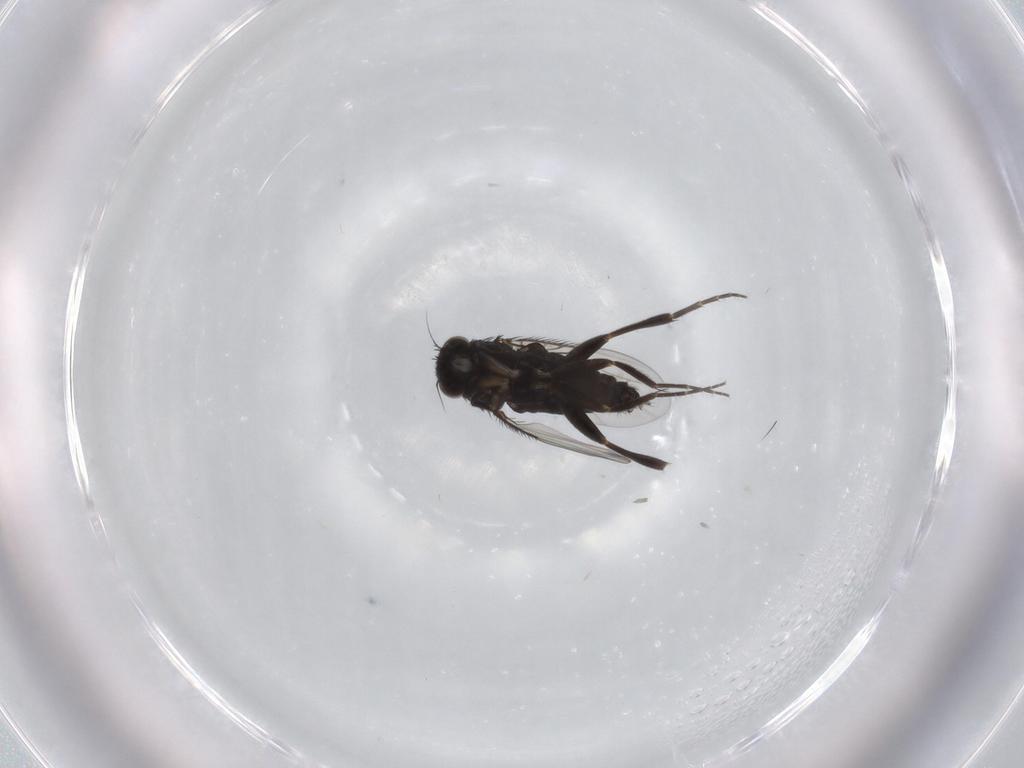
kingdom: Animalia
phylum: Arthropoda
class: Insecta
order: Diptera
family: Phoridae
